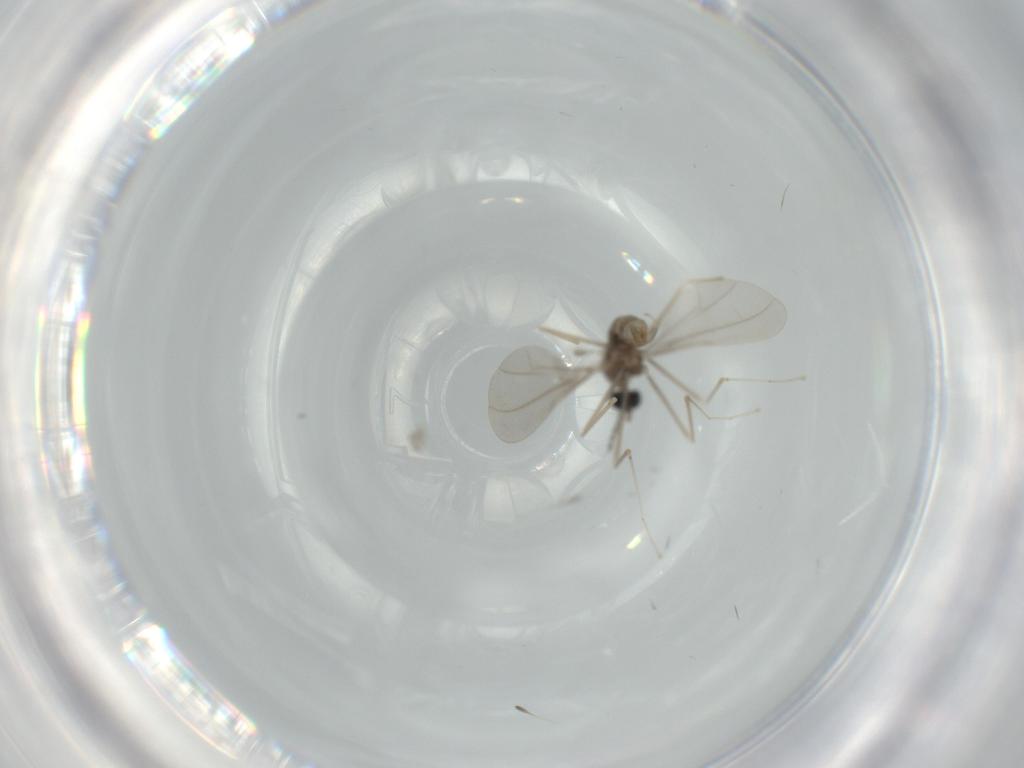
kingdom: Animalia
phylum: Arthropoda
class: Insecta
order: Diptera
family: Cecidomyiidae
